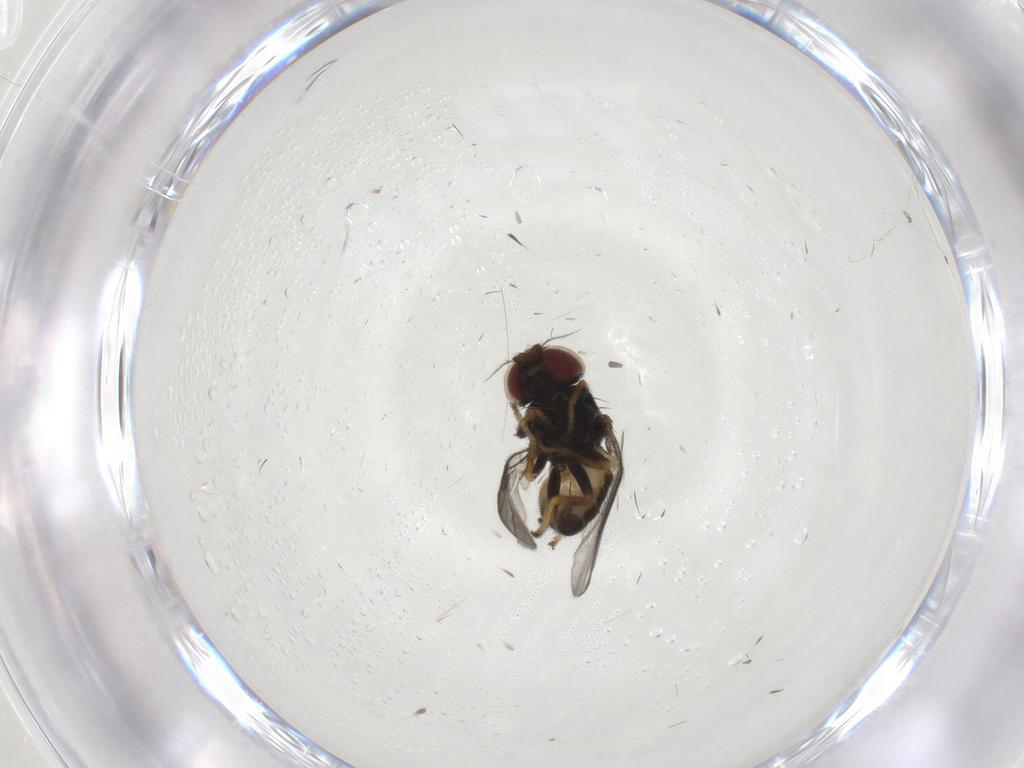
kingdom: Animalia
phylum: Arthropoda
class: Insecta
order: Diptera
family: Chloropidae
